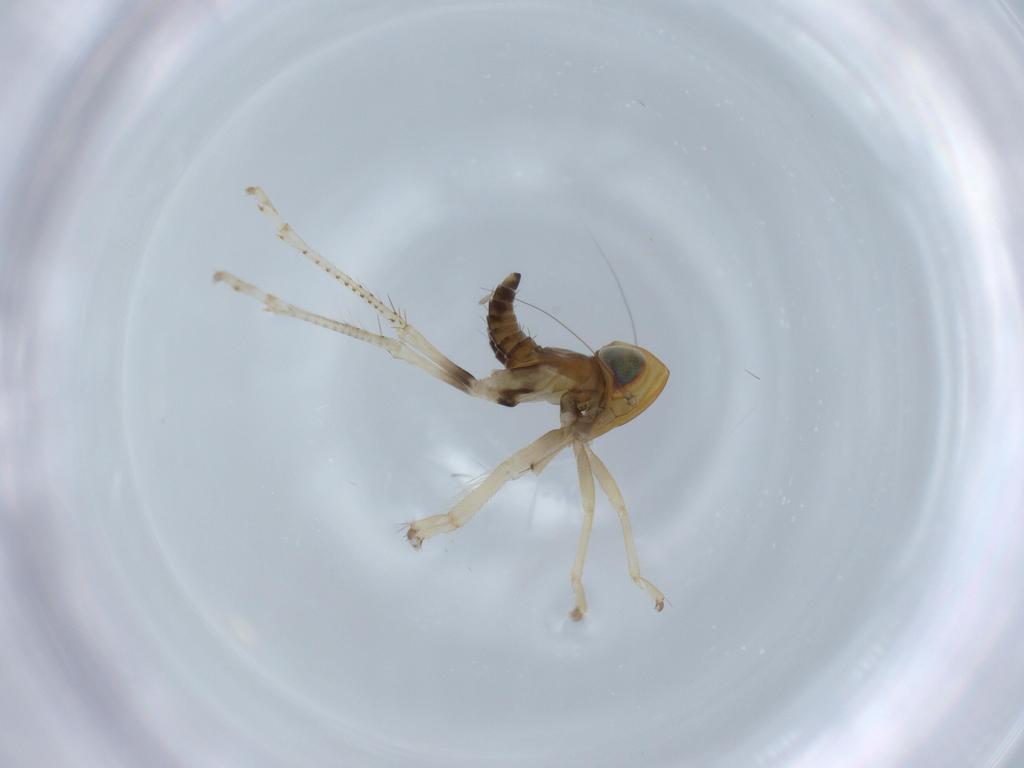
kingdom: Animalia
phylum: Arthropoda
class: Insecta
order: Hemiptera
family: Cicadellidae
